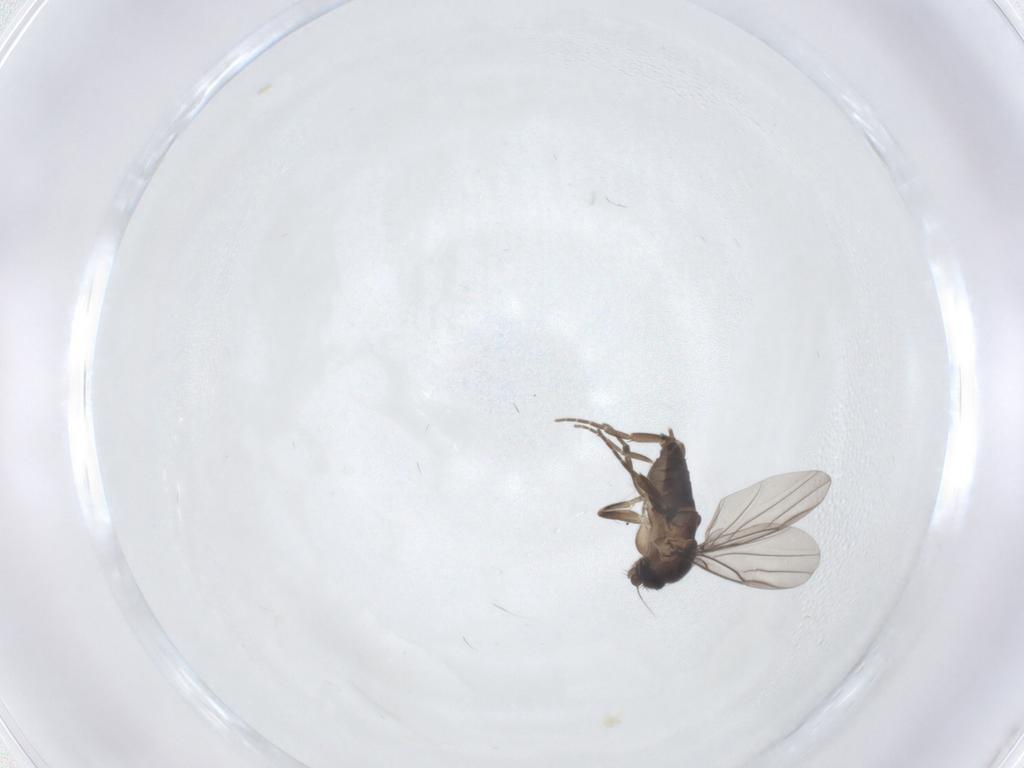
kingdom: Animalia
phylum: Arthropoda
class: Insecta
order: Diptera
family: Phoridae
